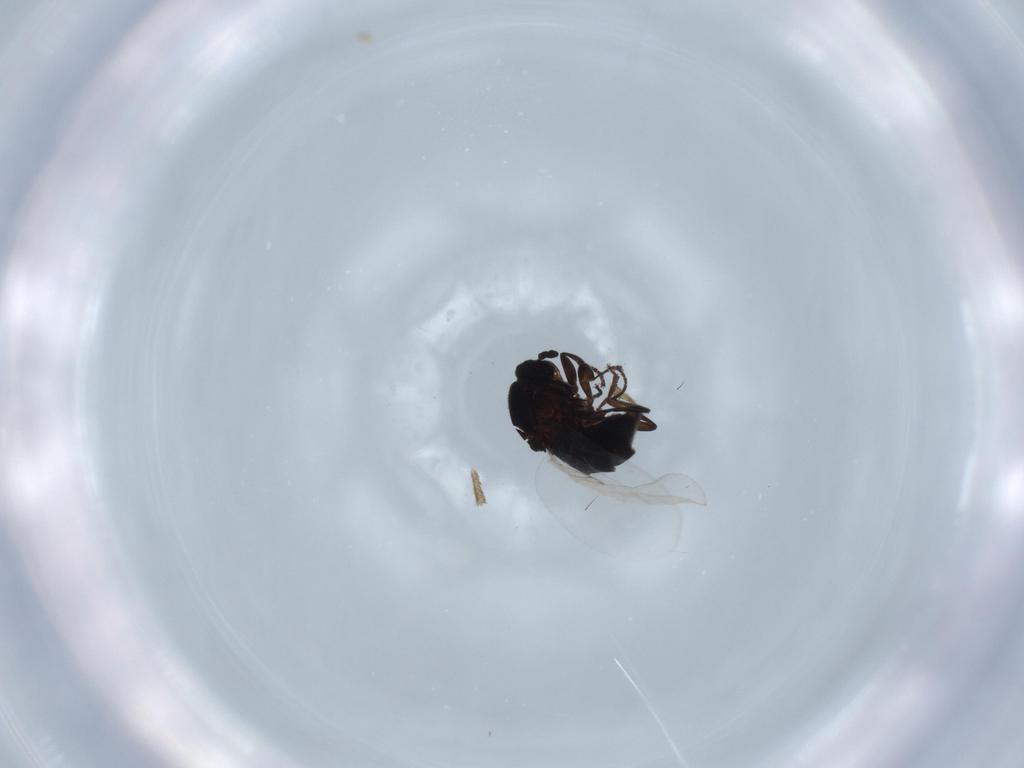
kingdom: Animalia
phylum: Arthropoda
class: Insecta
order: Diptera
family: Scatopsidae
